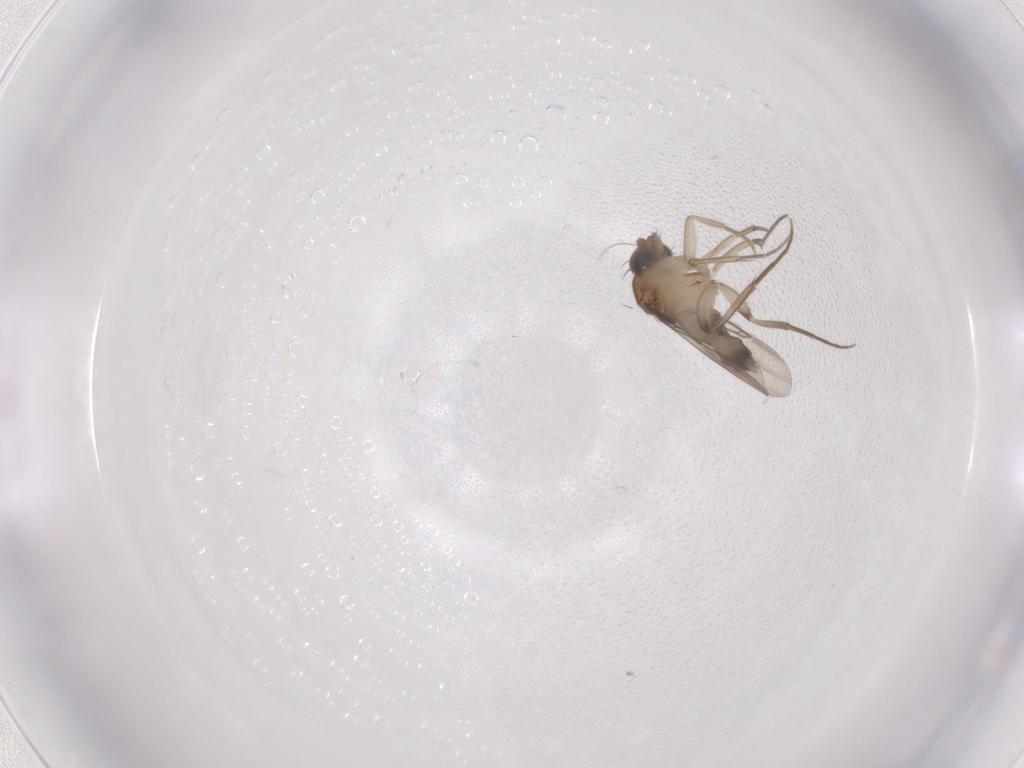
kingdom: Animalia
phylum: Arthropoda
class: Insecta
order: Diptera
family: Phoridae
